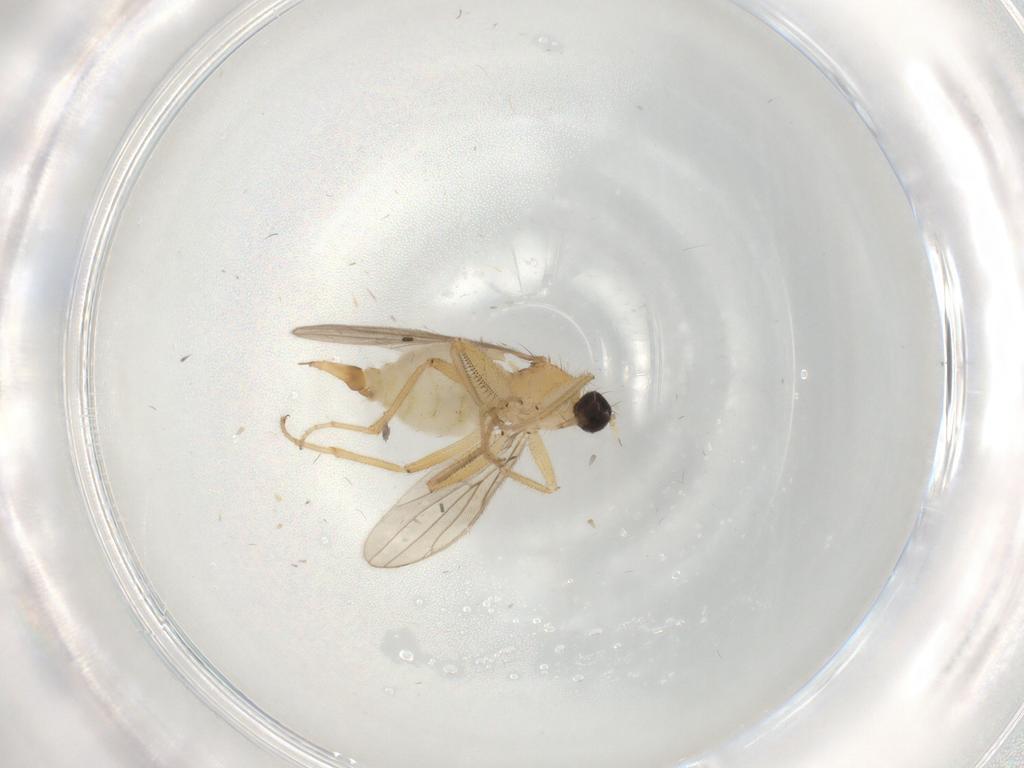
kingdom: Animalia
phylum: Arthropoda
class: Insecta
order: Diptera
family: Hybotidae
